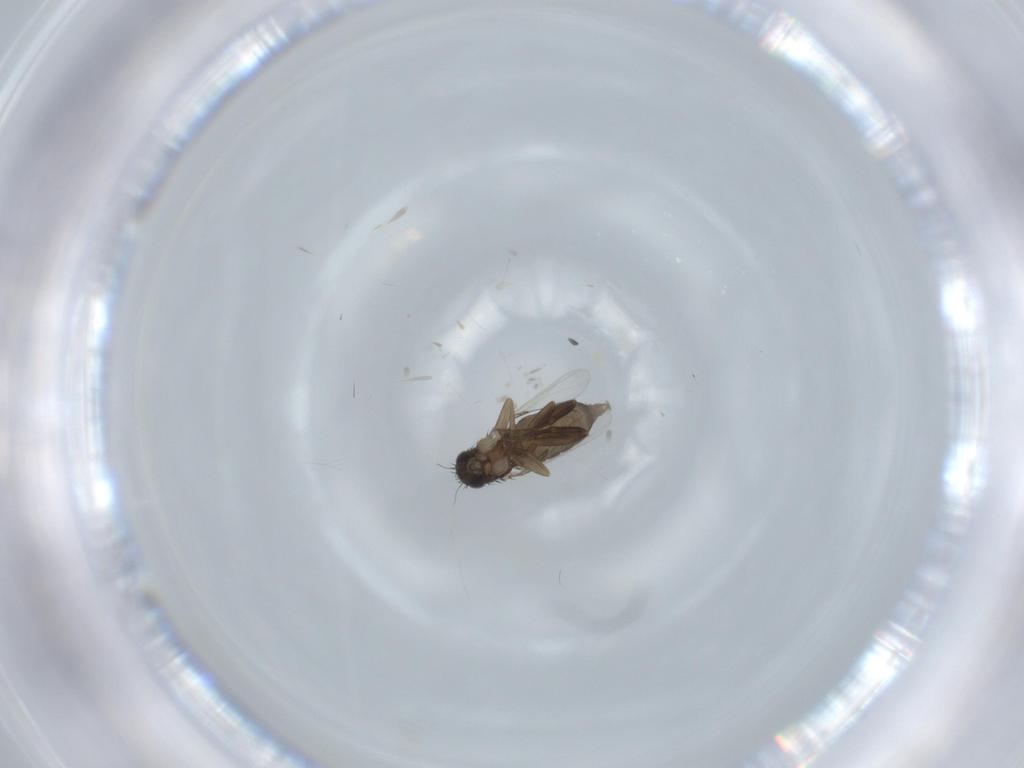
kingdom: Animalia
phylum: Arthropoda
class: Insecta
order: Diptera
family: Phoridae
